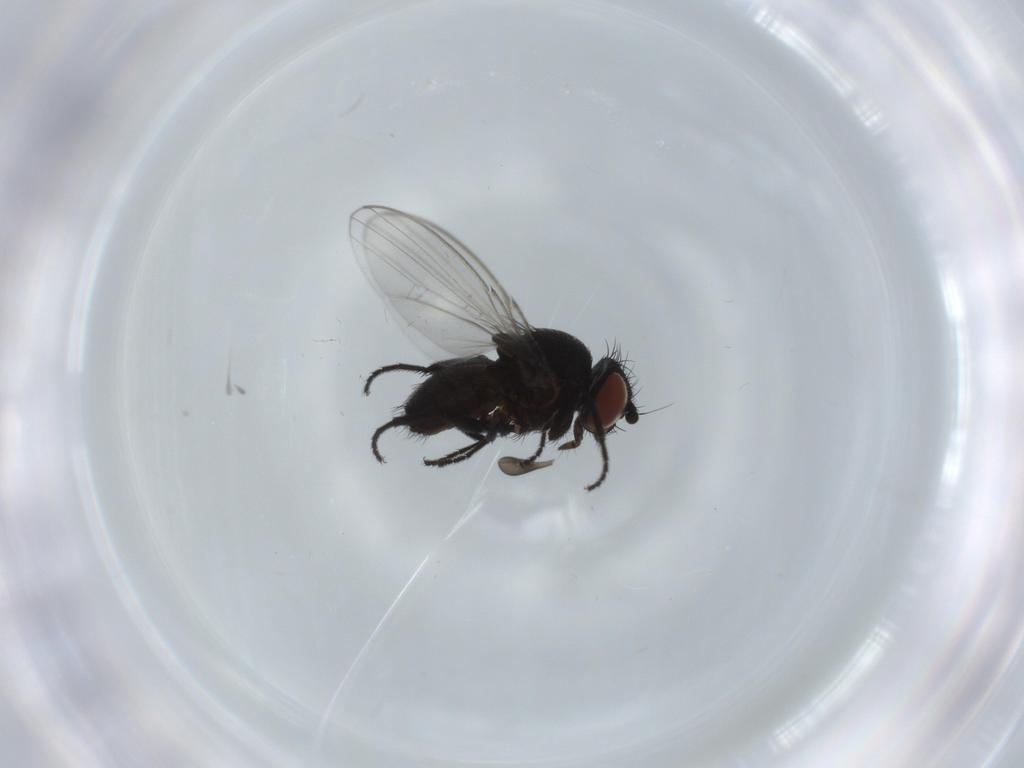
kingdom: Animalia
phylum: Arthropoda
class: Insecta
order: Diptera
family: Milichiidae
